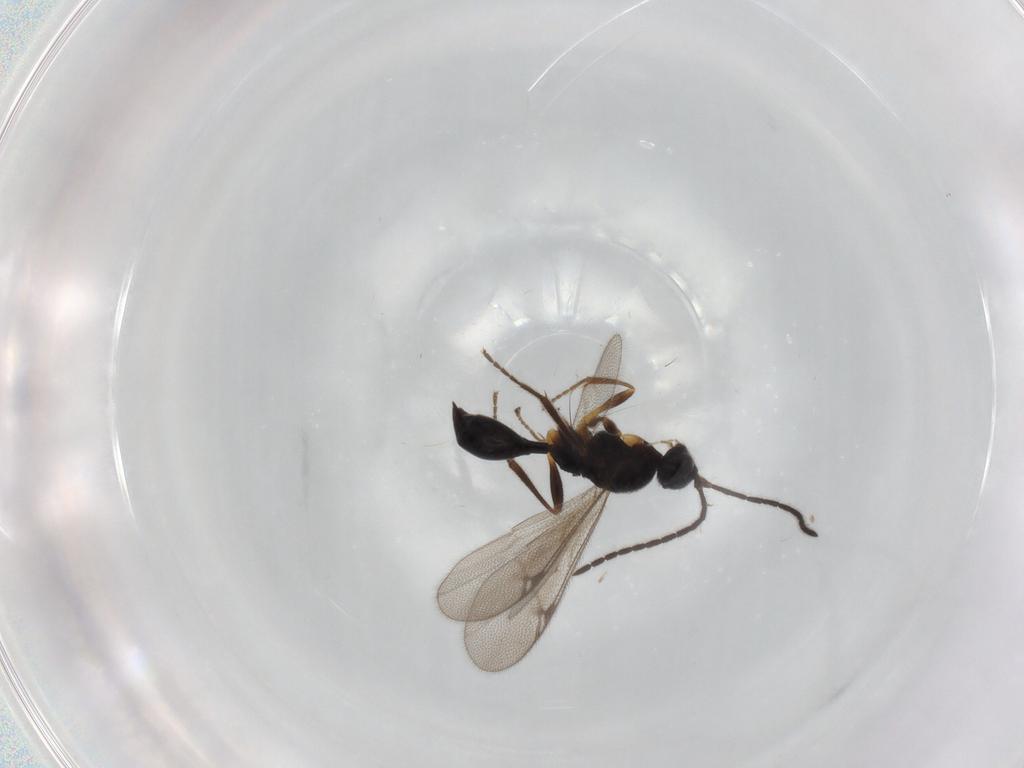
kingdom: Animalia
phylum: Arthropoda
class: Insecta
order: Hymenoptera
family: Proctotrupidae
